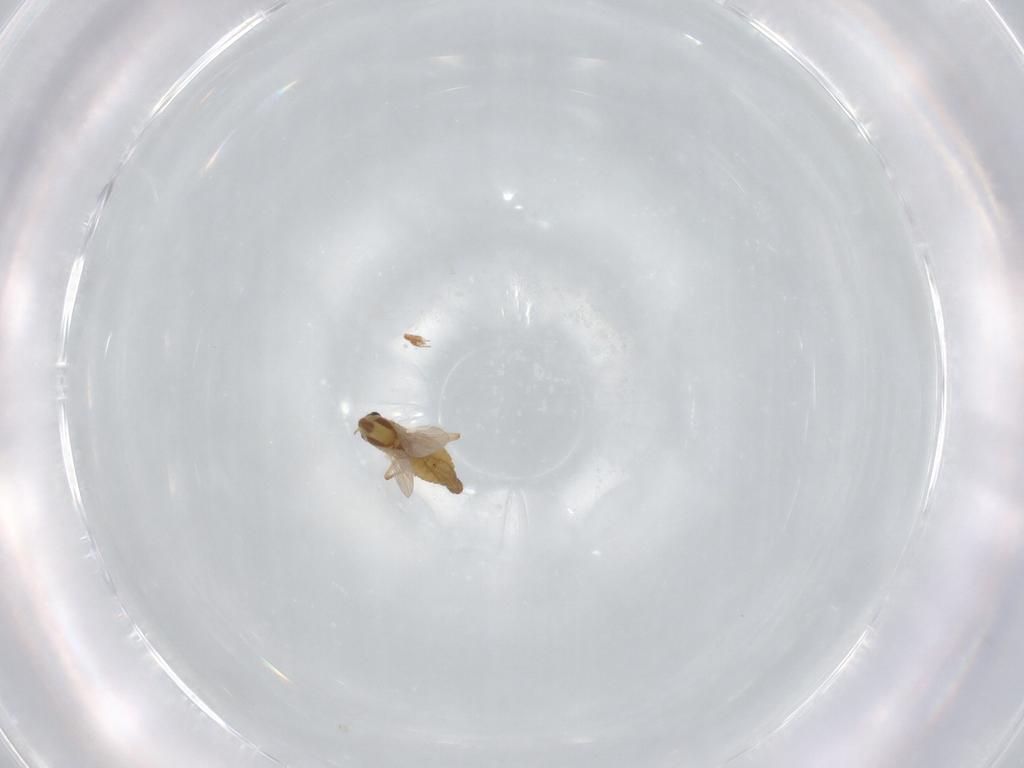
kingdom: Animalia
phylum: Arthropoda
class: Insecta
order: Diptera
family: Chironomidae
